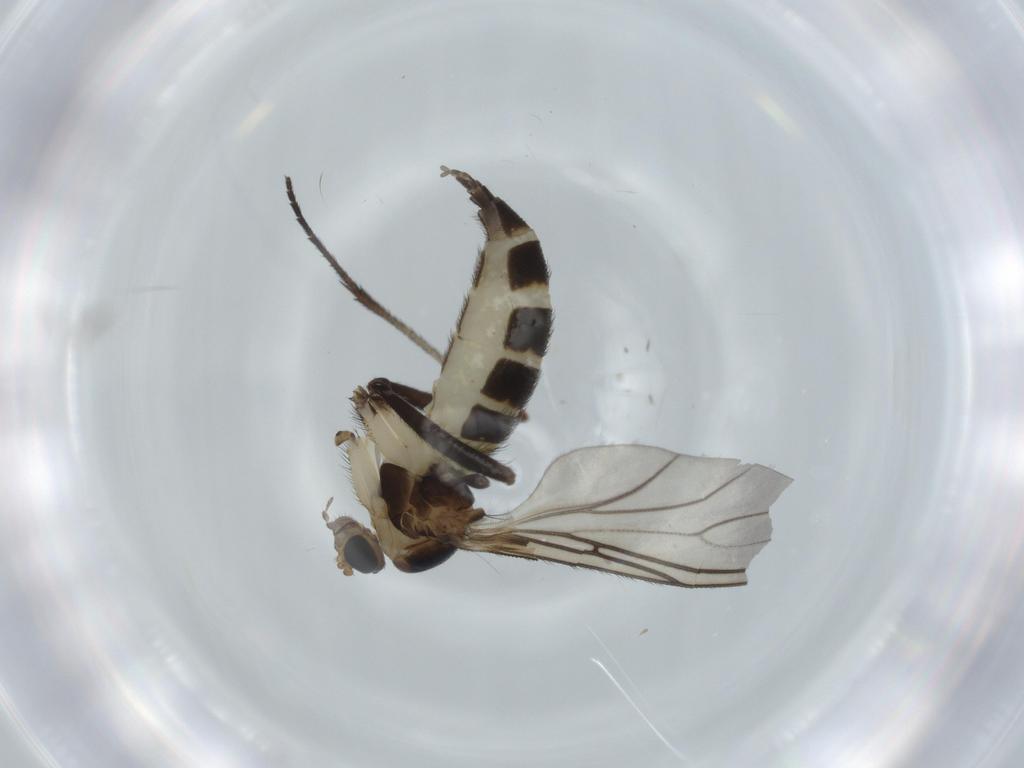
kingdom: Animalia
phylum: Arthropoda
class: Insecta
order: Diptera
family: Sciaridae
